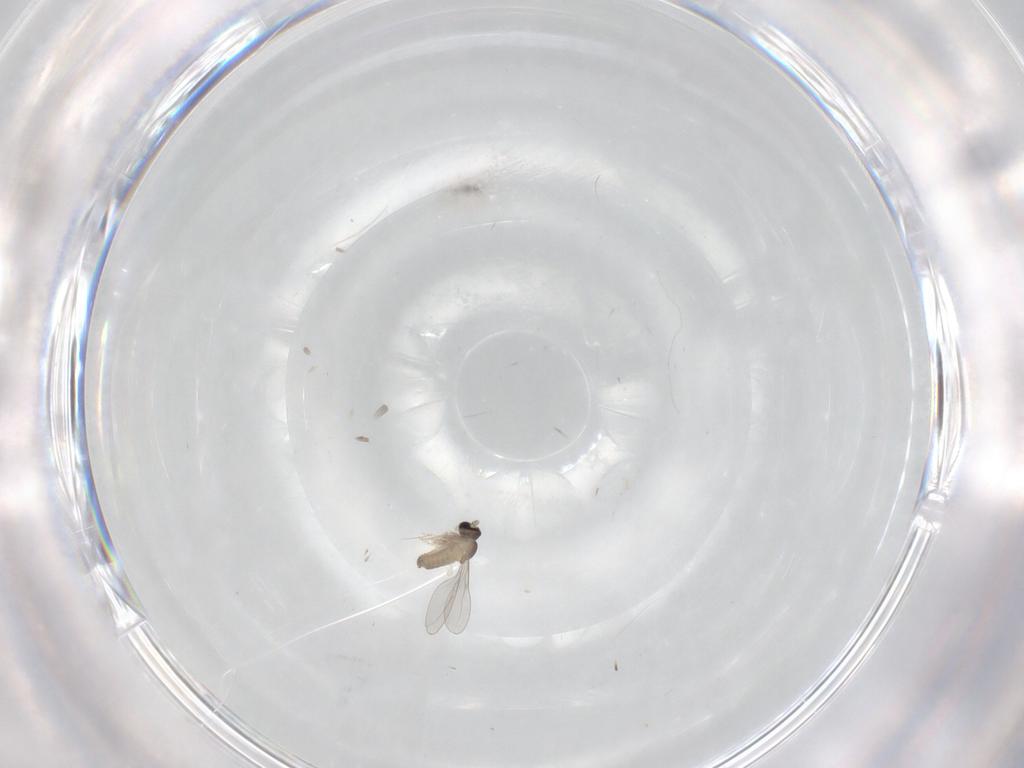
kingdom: Animalia
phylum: Arthropoda
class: Insecta
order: Diptera
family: Cecidomyiidae
